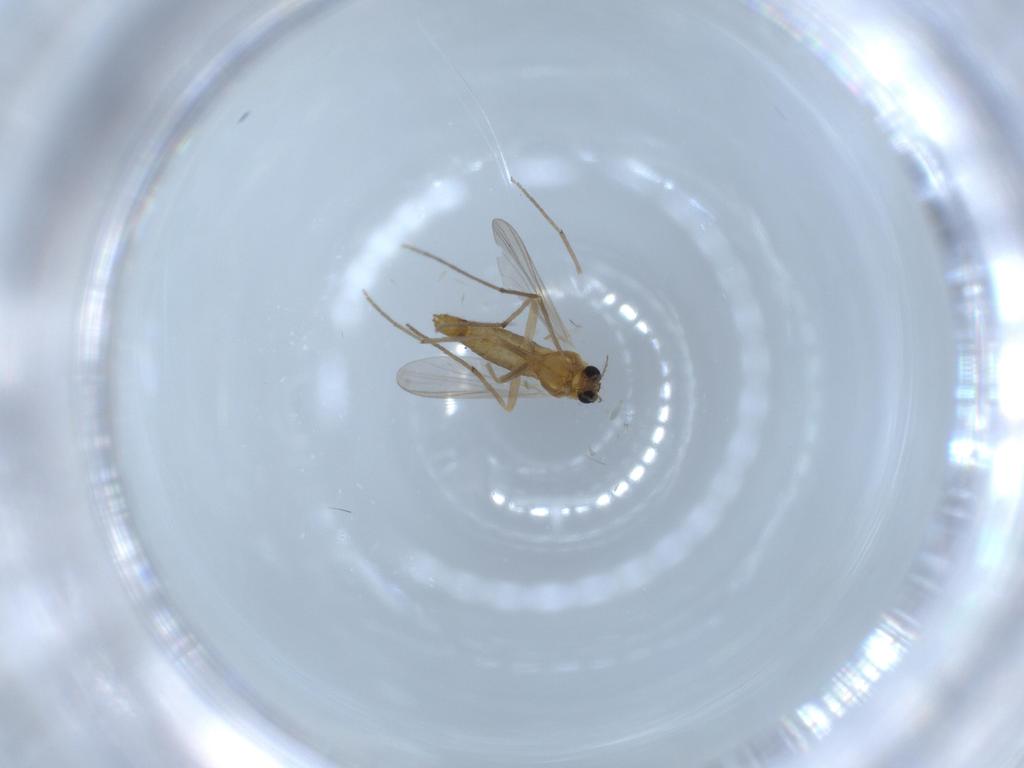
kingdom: Animalia
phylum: Arthropoda
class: Insecta
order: Diptera
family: Chironomidae
